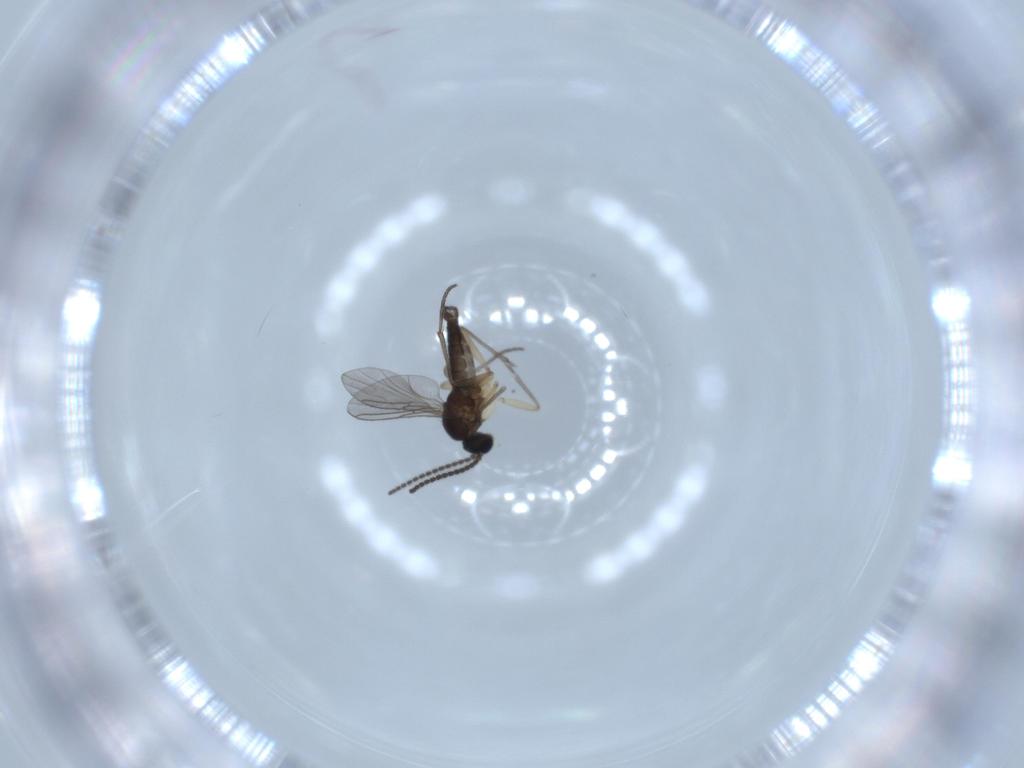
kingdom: Animalia
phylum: Arthropoda
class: Insecta
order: Diptera
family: Sciaridae
